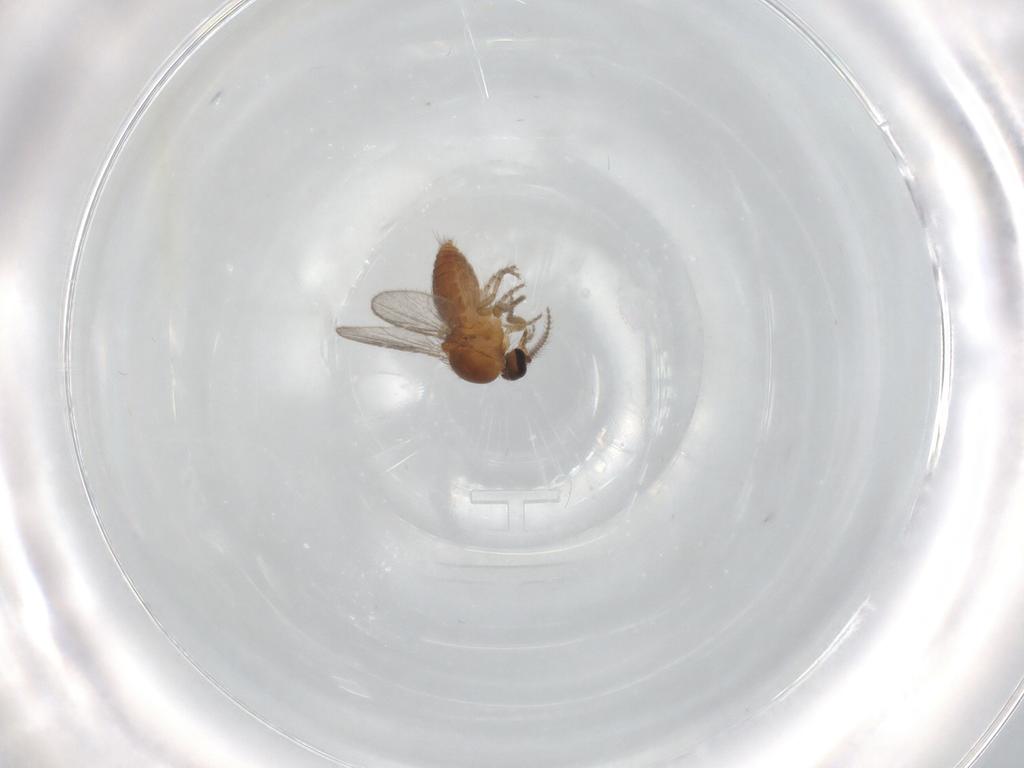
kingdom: Animalia
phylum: Arthropoda
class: Insecta
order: Diptera
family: Ceratopogonidae
